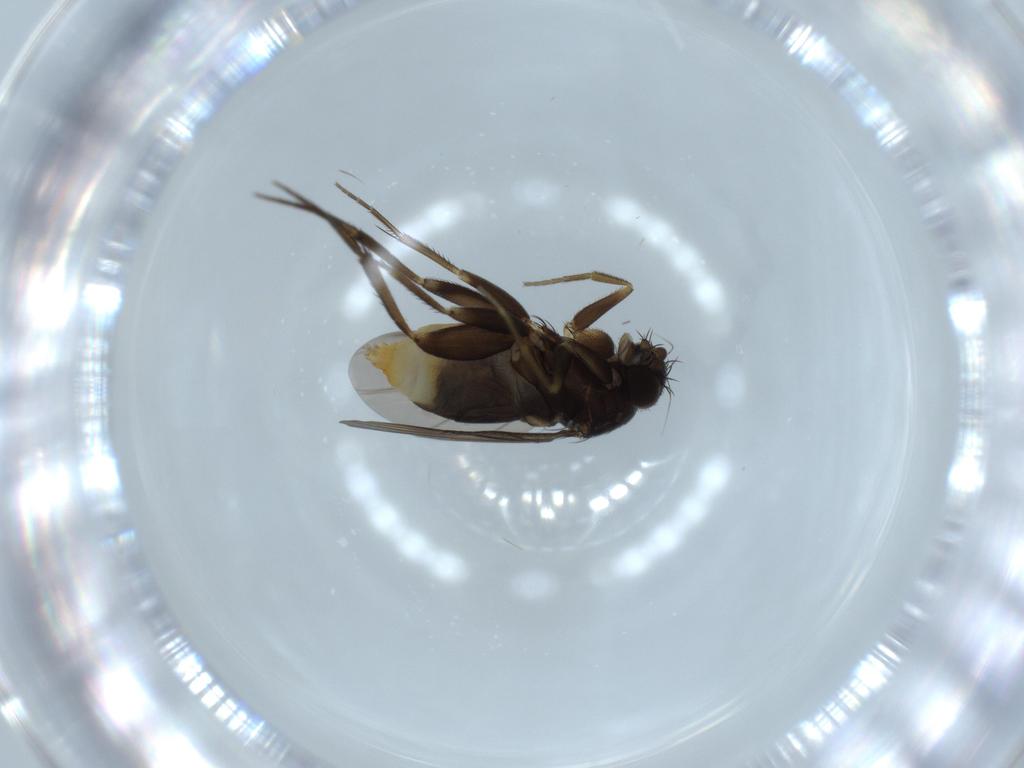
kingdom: Animalia
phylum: Arthropoda
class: Insecta
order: Diptera
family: Phoridae
